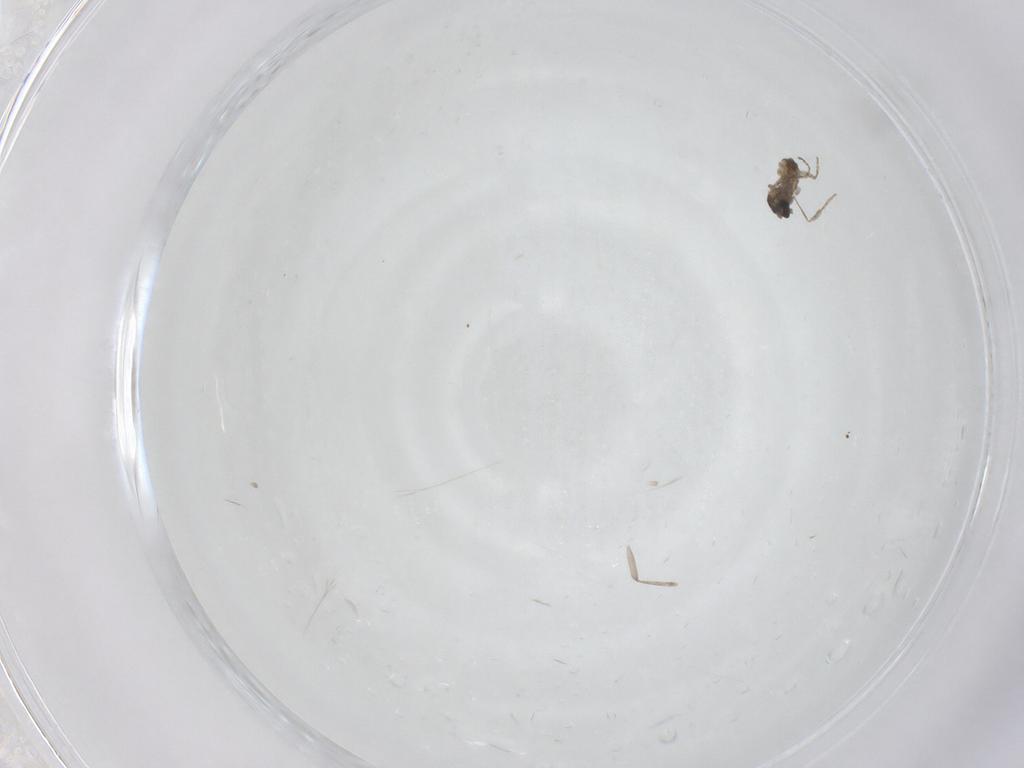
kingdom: Animalia
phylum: Arthropoda
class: Insecta
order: Diptera
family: Cecidomyiidae
